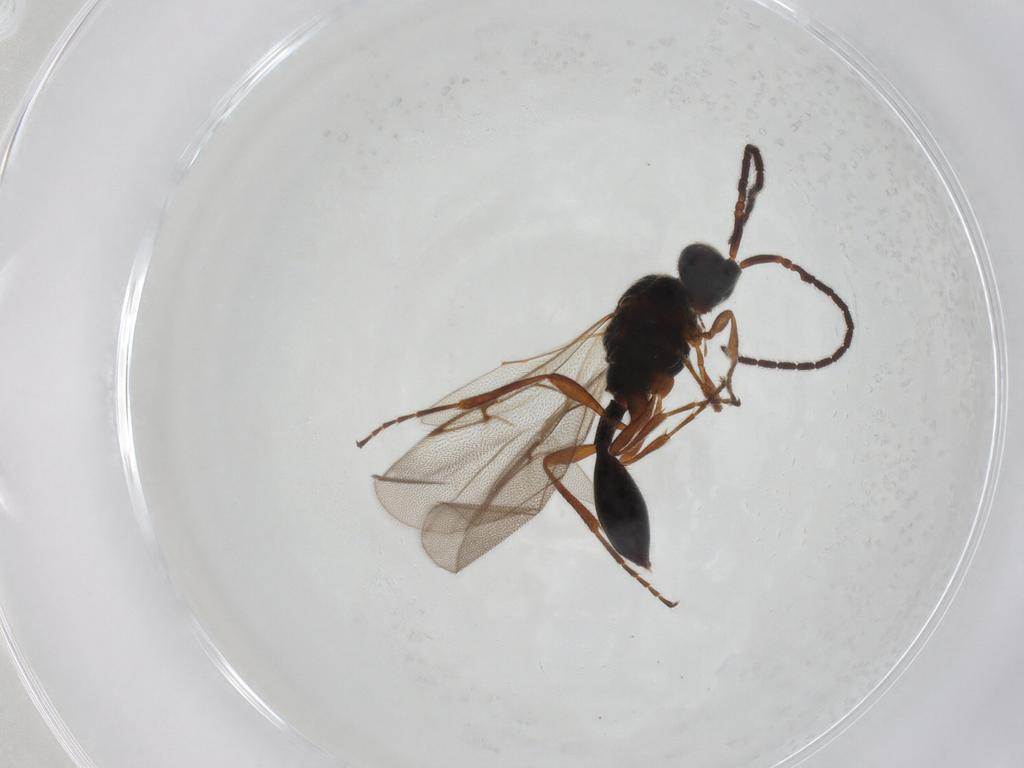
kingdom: Animalia
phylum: Arthropoda
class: Insecta
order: Hymenoptera
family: Diapriidae
